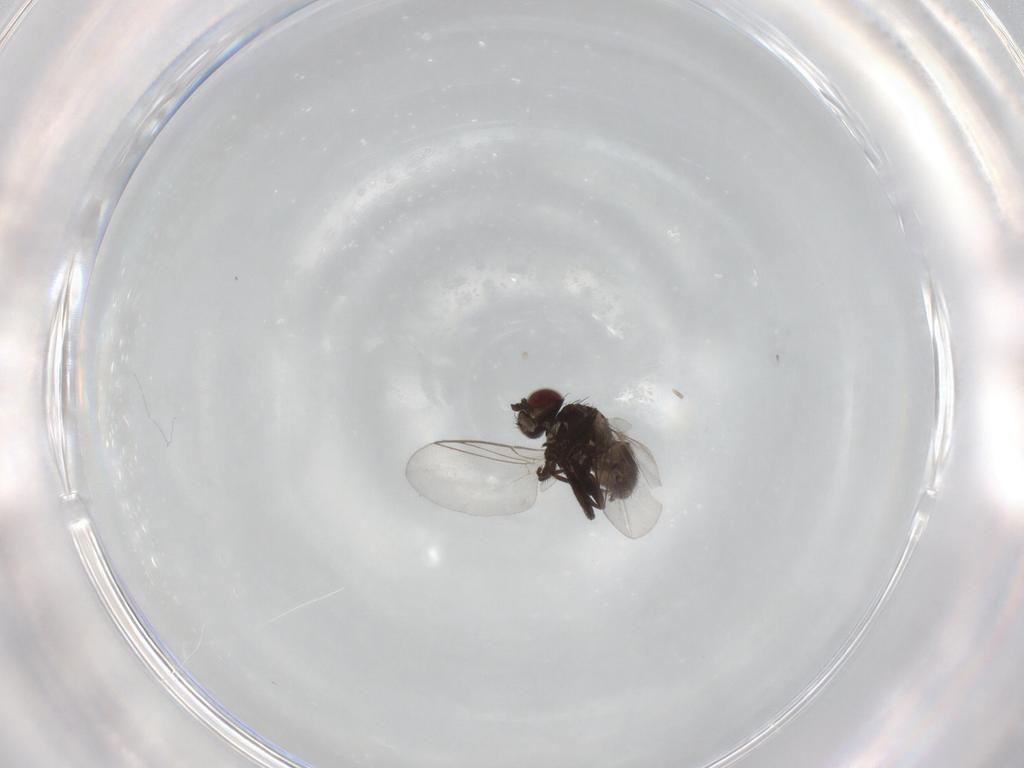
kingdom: Animalia
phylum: Arthropoda
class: Insecta
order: Diptera
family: Agromyzidae
